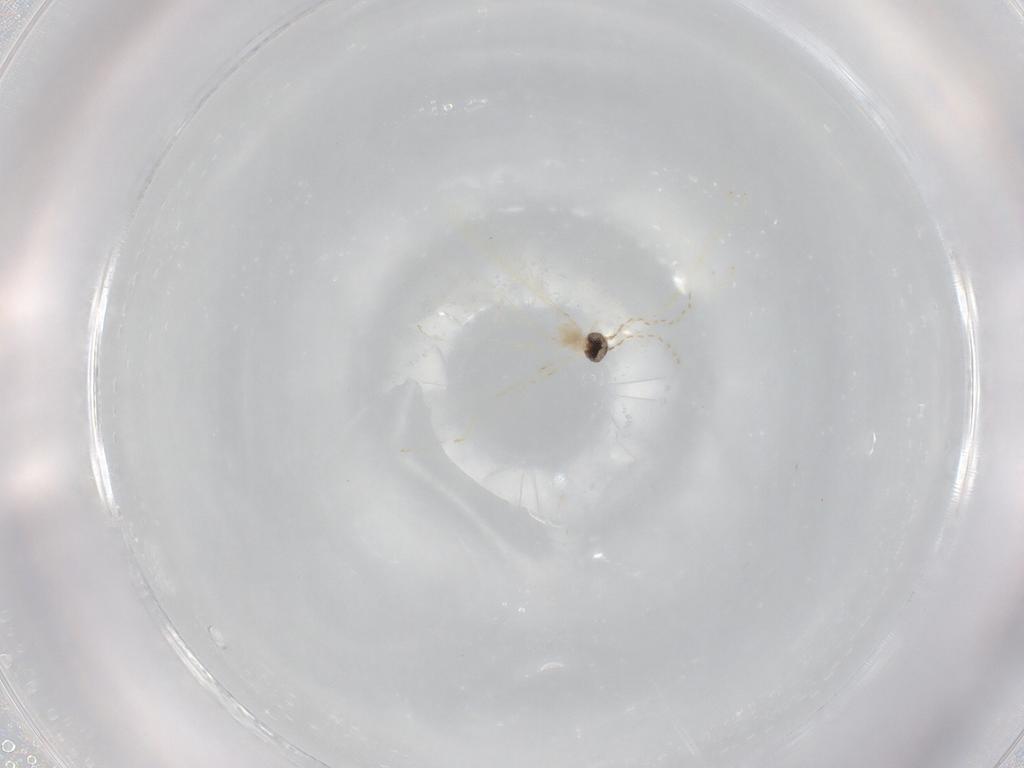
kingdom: Animalia
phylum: Arthropoda
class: Insecta
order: Diptera
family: Cecidomyiidae
